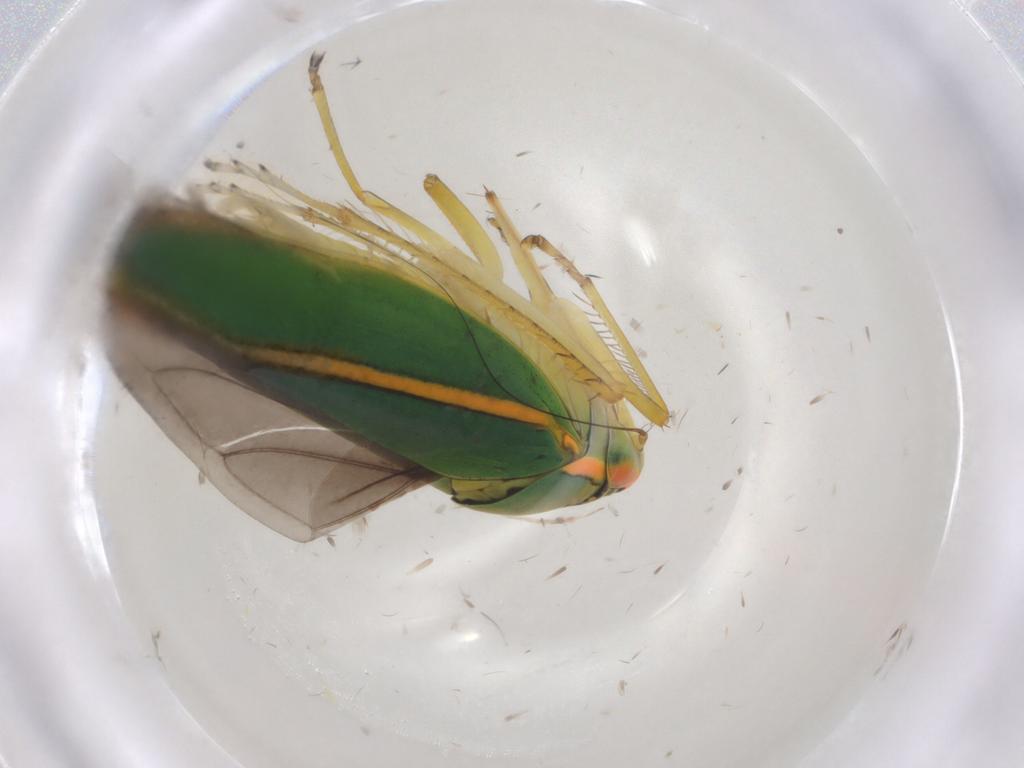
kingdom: Animalia
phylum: Arthropoda
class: Insecta
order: Hemiptera
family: Cicadellidae
